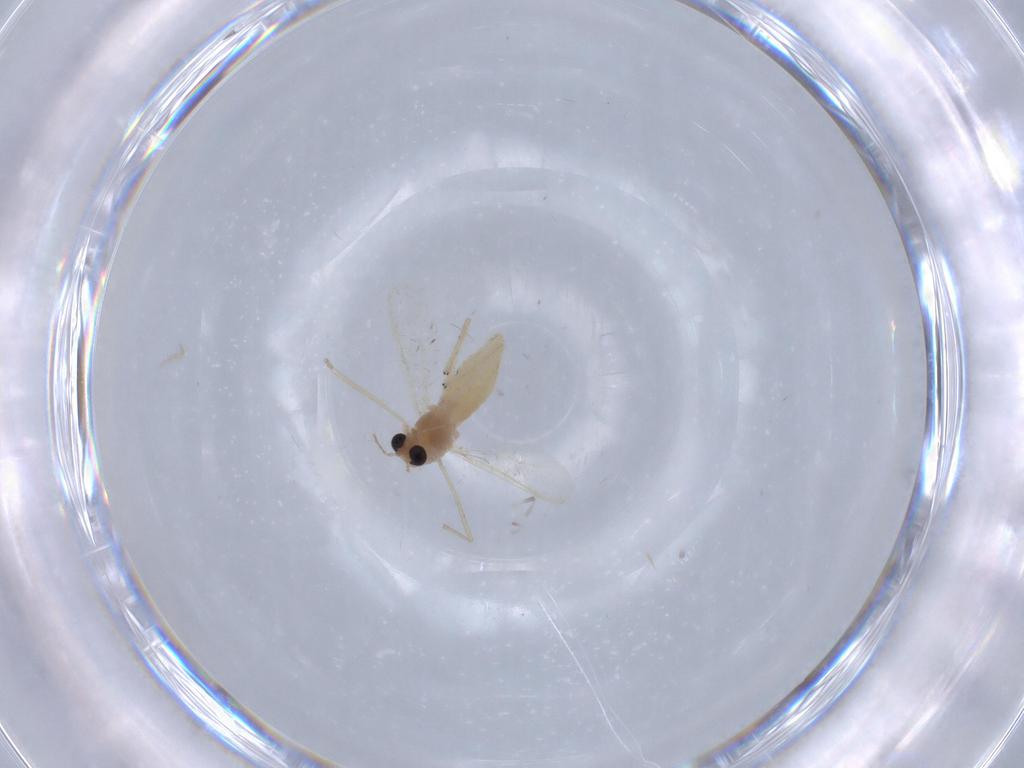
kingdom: Animalia
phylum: Arthropoda
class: Insecta
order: Diptera
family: Chironomidae
